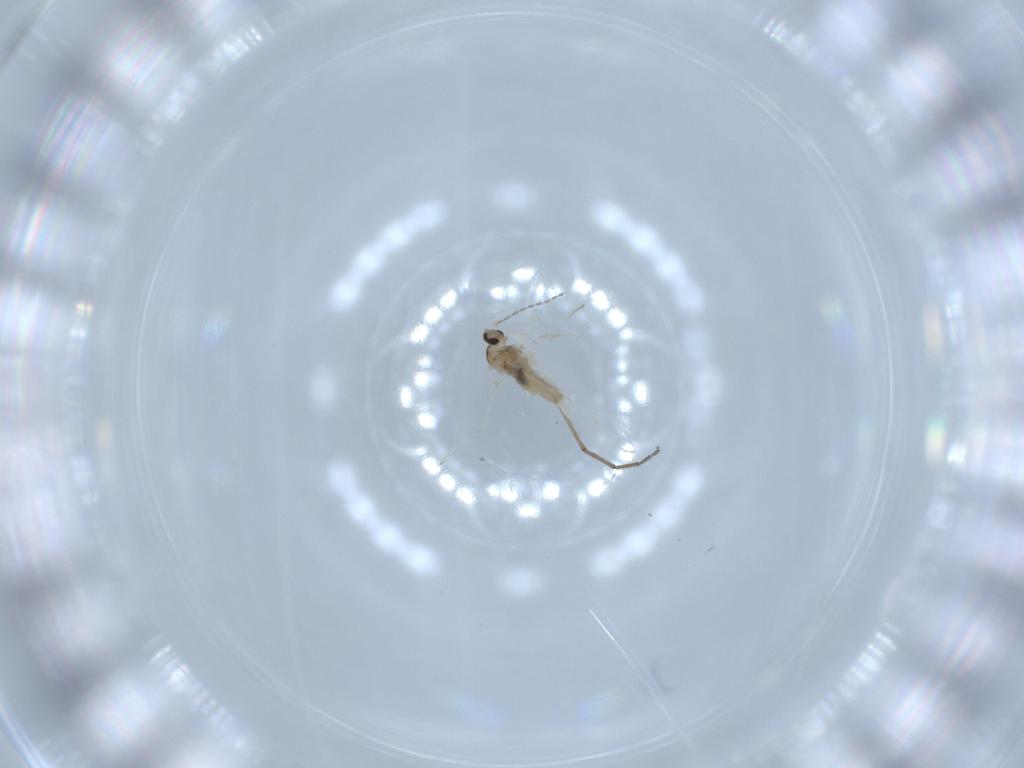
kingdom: Animalia
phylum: Arthropoda
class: Insecta
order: Diptera
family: Cecidomyiidae
